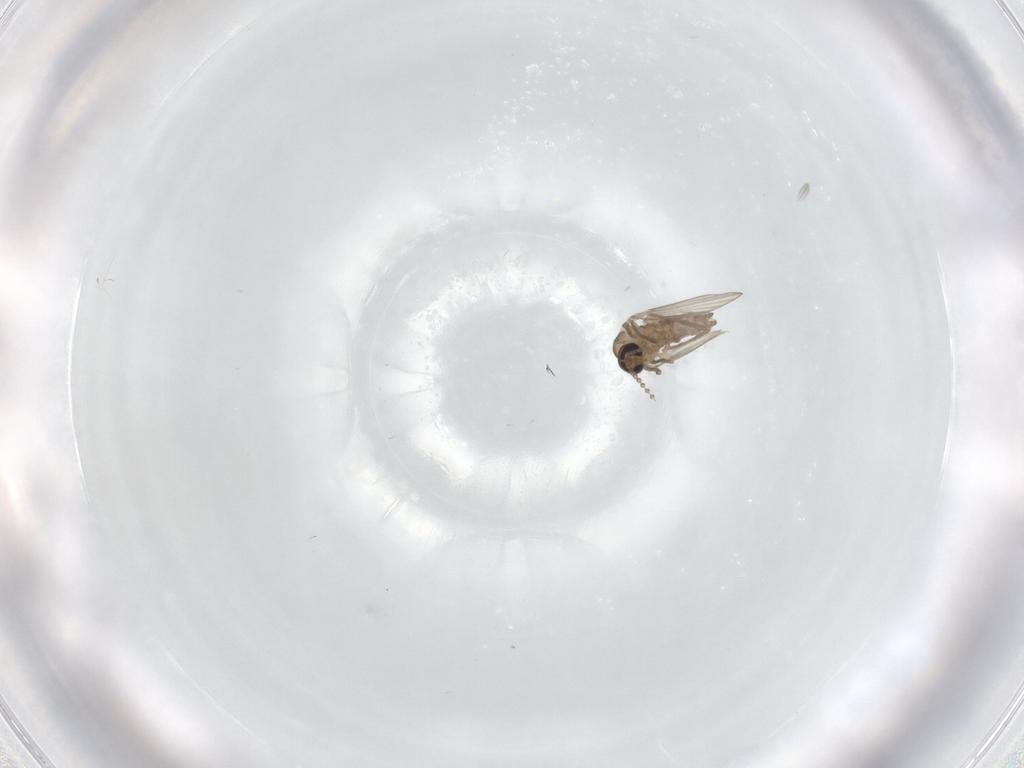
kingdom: Animalia
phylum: Arthropoda
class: Insecta
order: Diptera
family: Psychodidae
